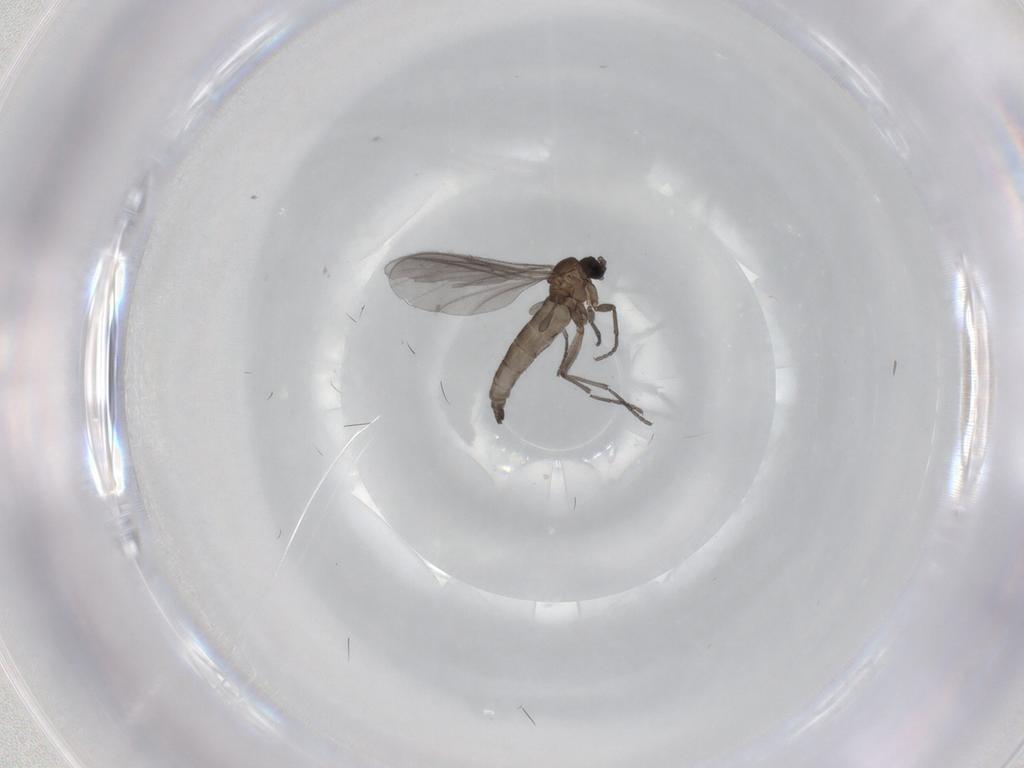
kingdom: Animalia
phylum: Arthropoda
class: Insecta
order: Diptera
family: Sciaridae
